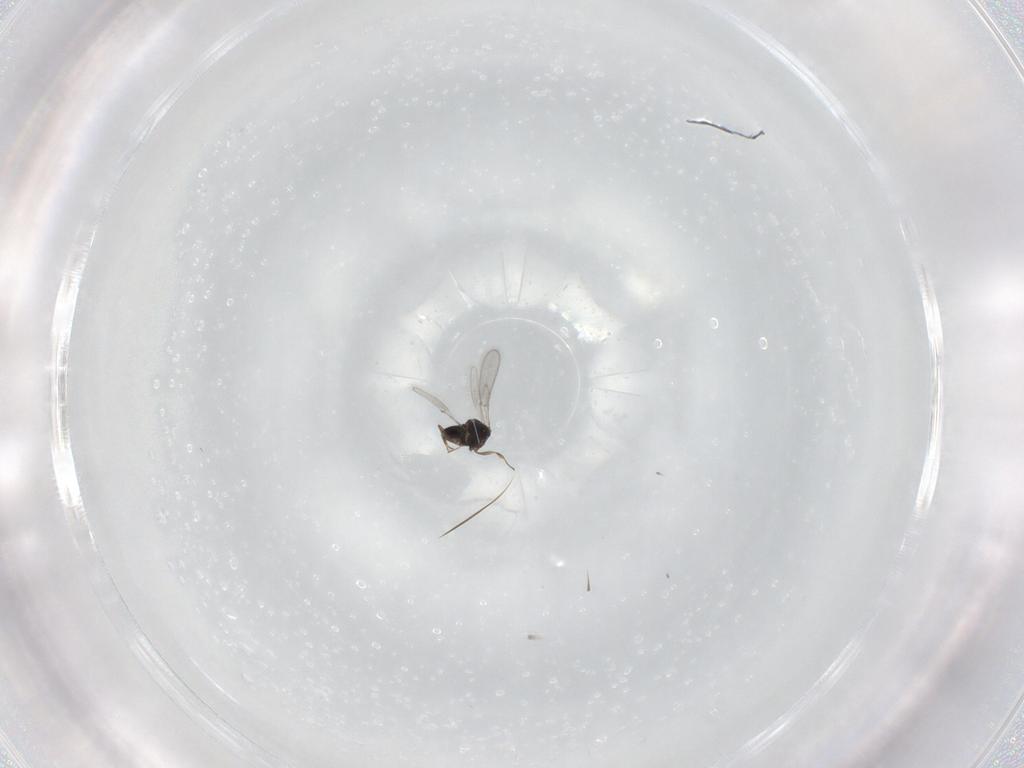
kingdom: Animalia
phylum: Arthropoda
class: Insecta
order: Hymenoptera
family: Scelionidae
